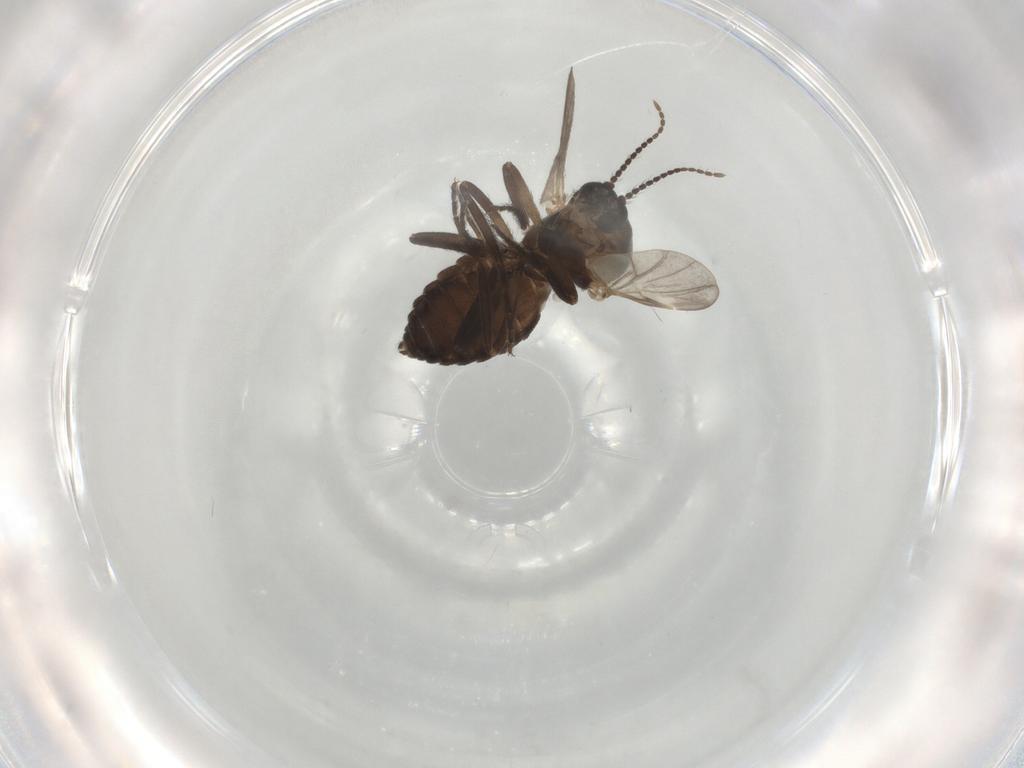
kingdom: Animalia
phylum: Arthropoda
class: Insecta
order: Diptera
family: Ceratopogonidae
